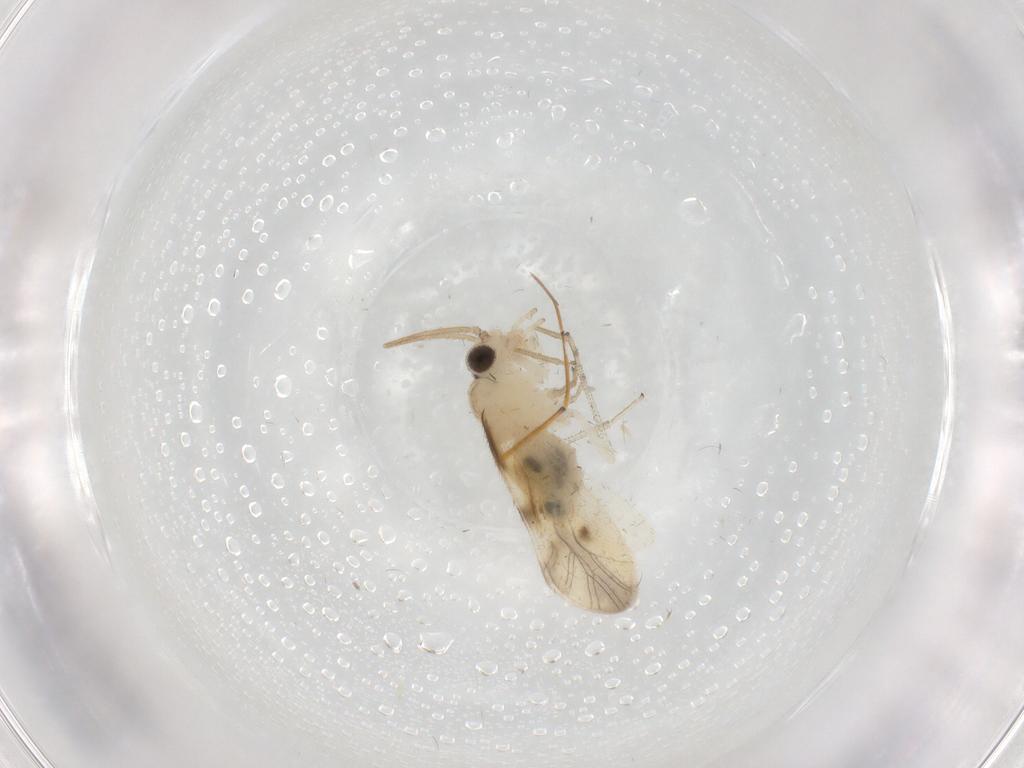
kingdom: Animalia
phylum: Arthropoda
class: Insecta
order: Psocodea
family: Caeciliusidae
